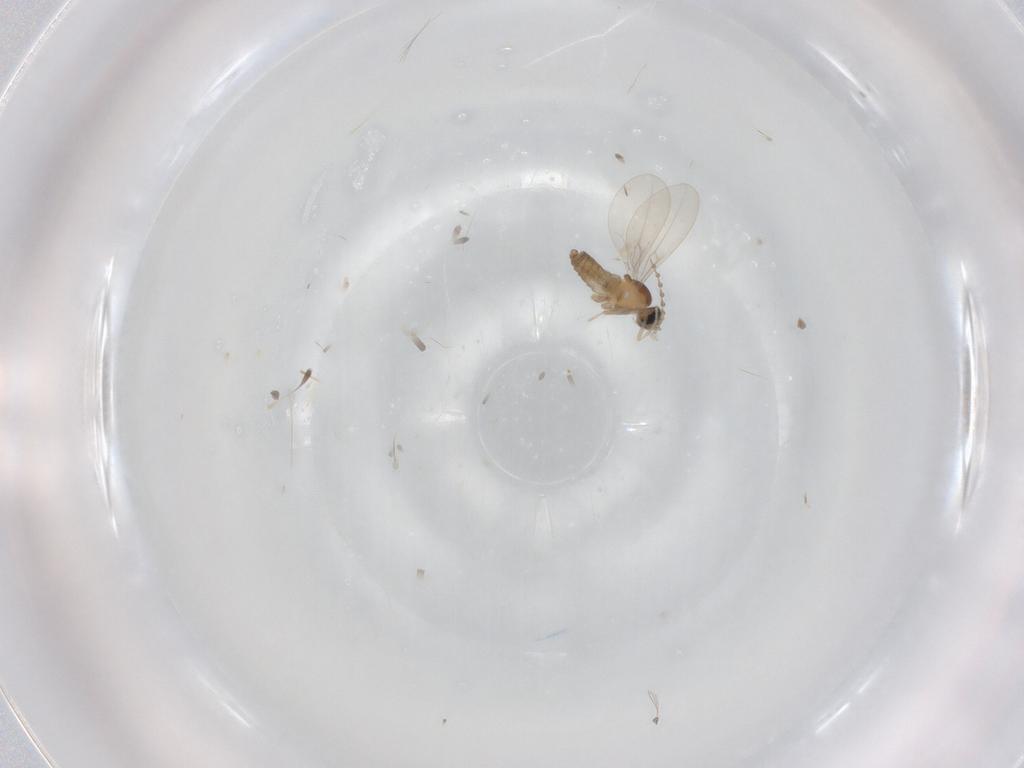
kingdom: Animalia
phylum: Arthropoda
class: Insecta
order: Diptera
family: Cecidomyiidae
